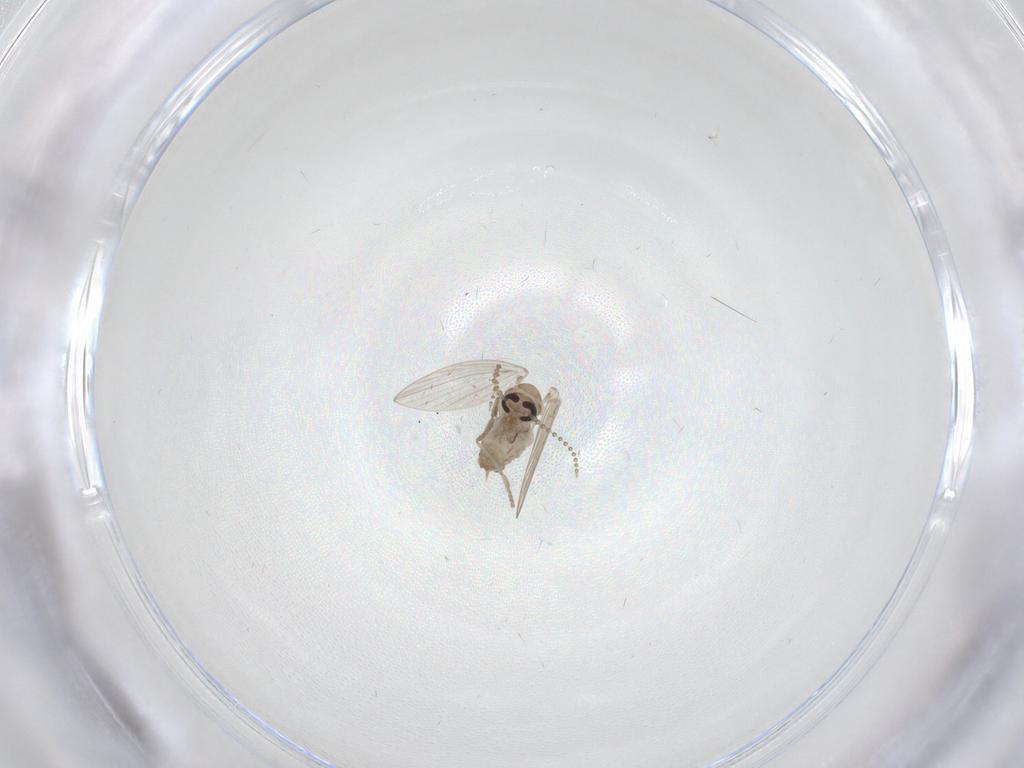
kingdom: Animalia
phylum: Arthropoda
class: Insecta
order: Diptera
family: Psychodidae
